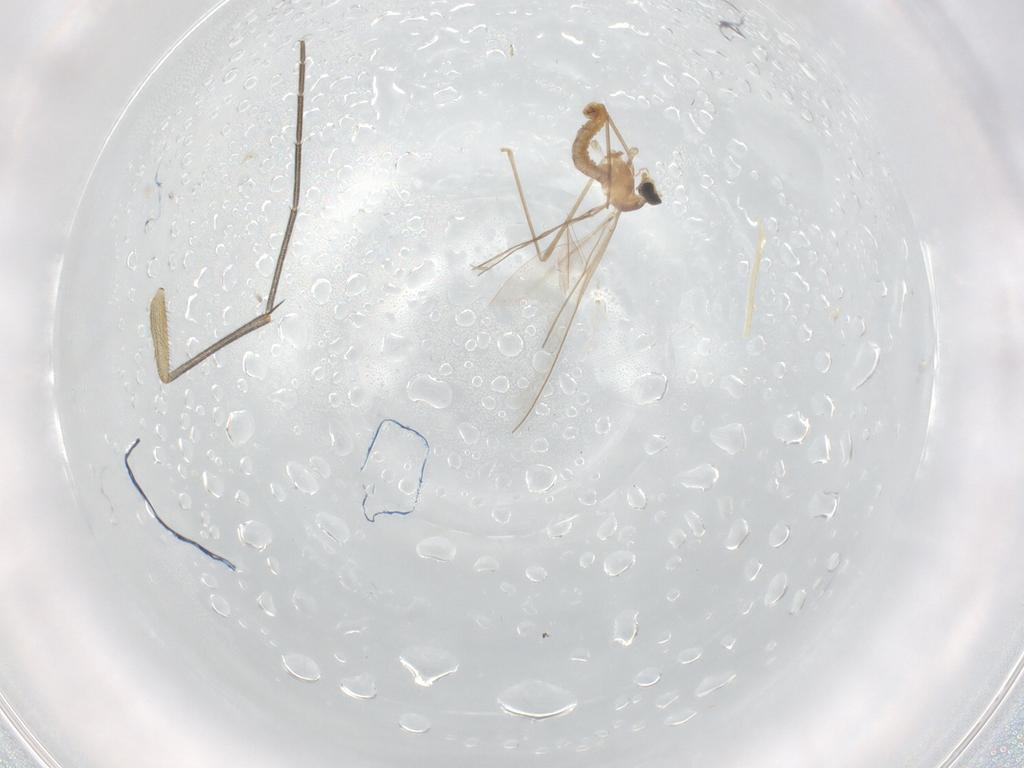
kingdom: Animalia
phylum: Arthropoda
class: Insecta
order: Diptera
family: Cecidomyiidae
